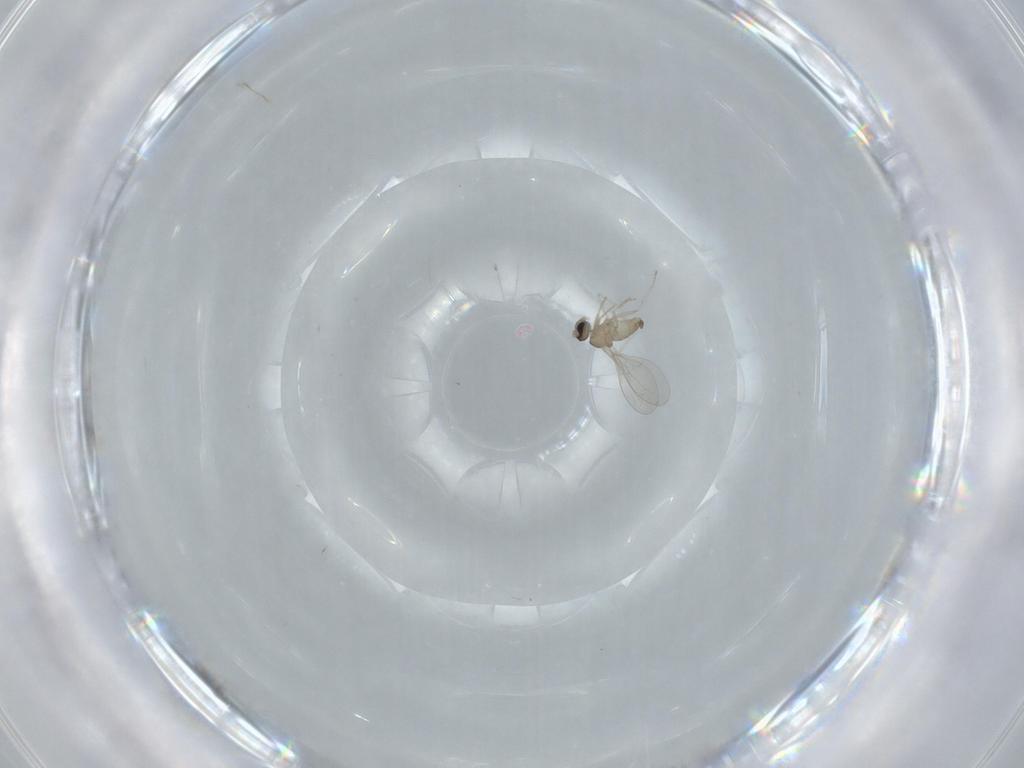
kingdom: Animalia
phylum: Arthropoda
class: Insecta
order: Diptera
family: Cecidomyiidae
